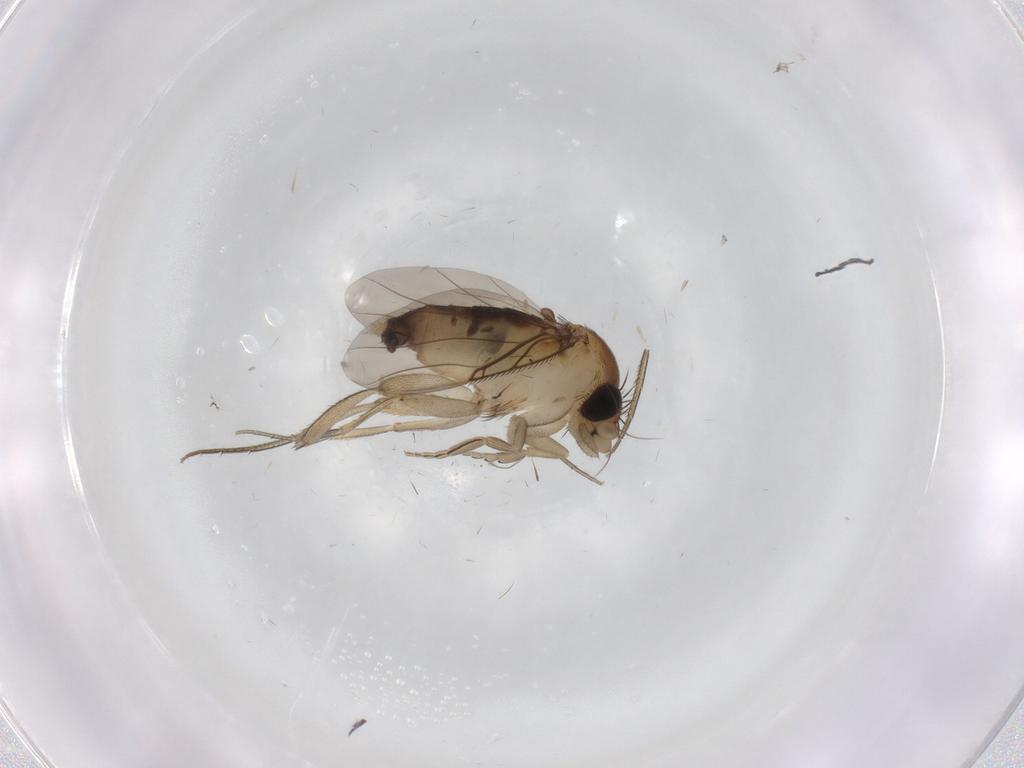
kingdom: Animalia
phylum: Arthropoda
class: Insecta
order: Diptera
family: Phoridae
